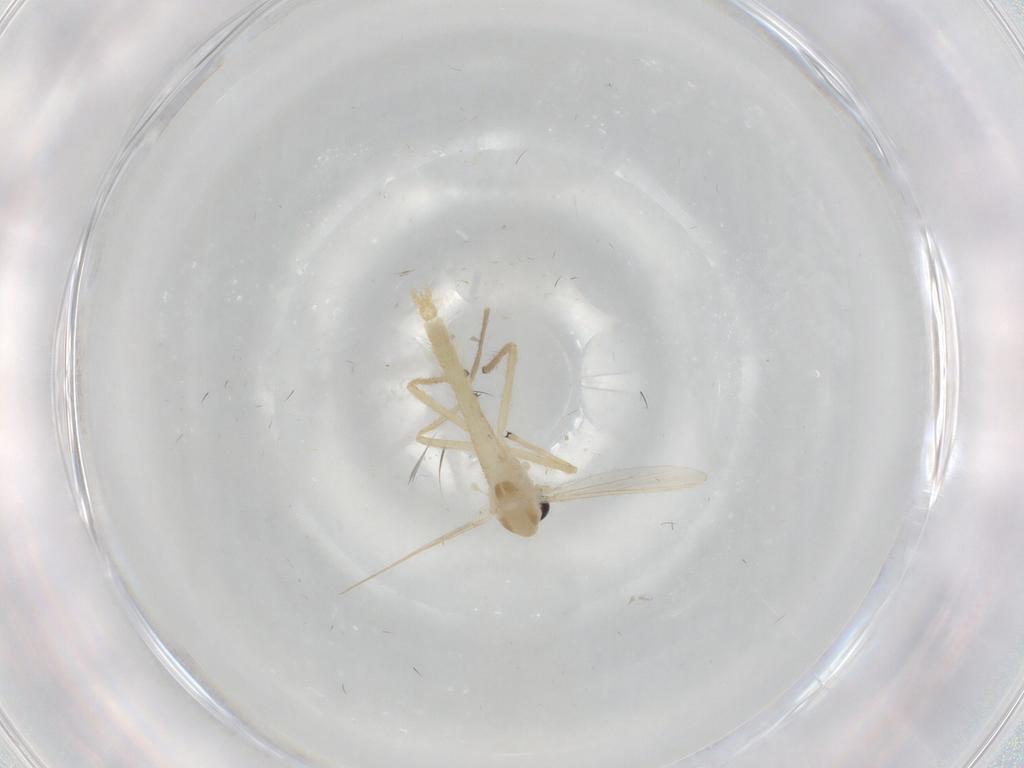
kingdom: Animalia
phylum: Arthropoda
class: Insecta
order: Diptera
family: Chironomidae
